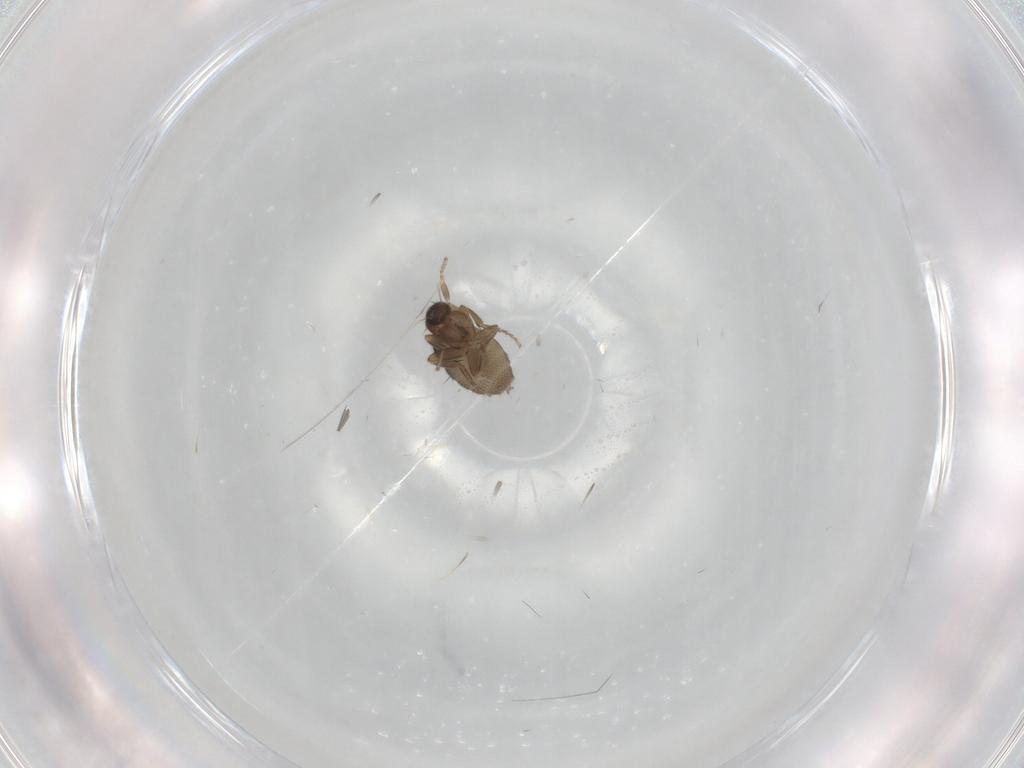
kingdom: Animalia
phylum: Arthropoda
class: Insecta
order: Diptera
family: Phoridae
